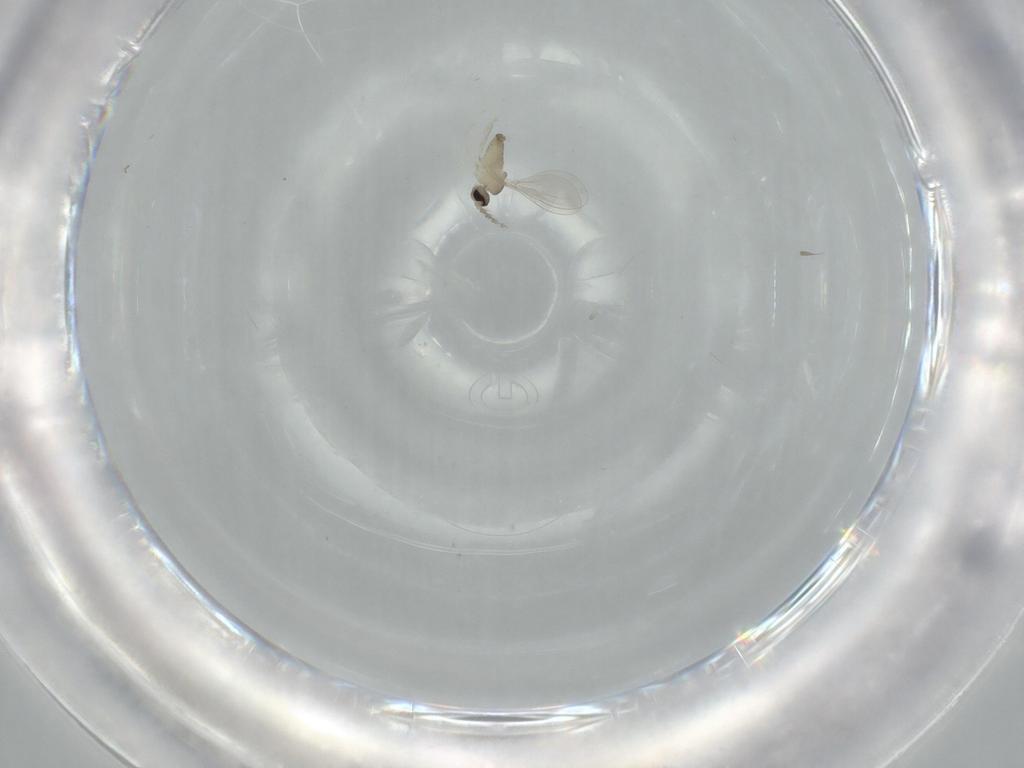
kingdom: Animalia
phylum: Arthropoda
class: Insecta
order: Diptera
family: Cecidomyiidae
